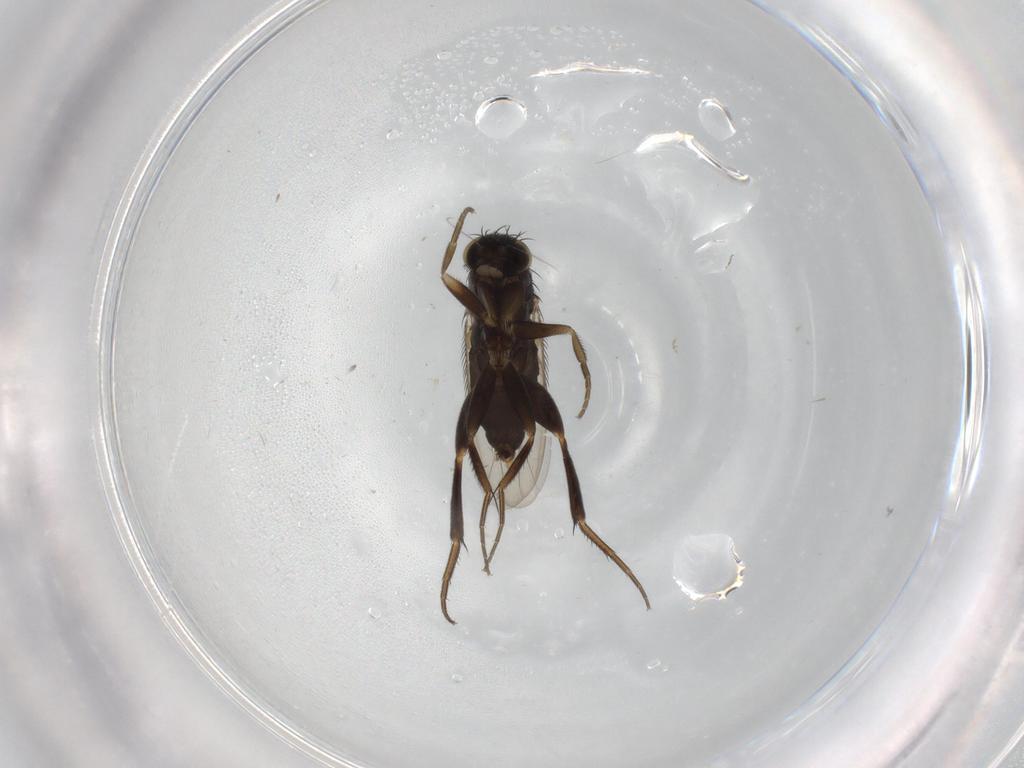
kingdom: Animalia
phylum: Arthropoda
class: Insecta
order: Diptera
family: Phoridae
